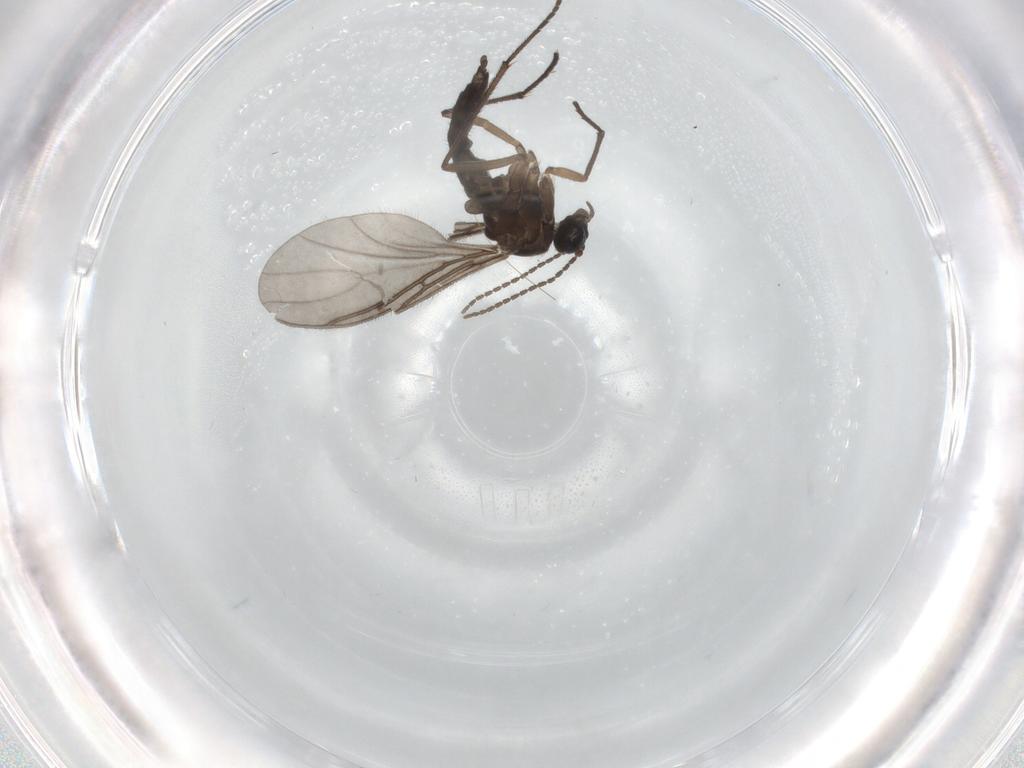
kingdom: Animalia
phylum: Arthropoda
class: Insecta
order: Diptera
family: Sciaridae
